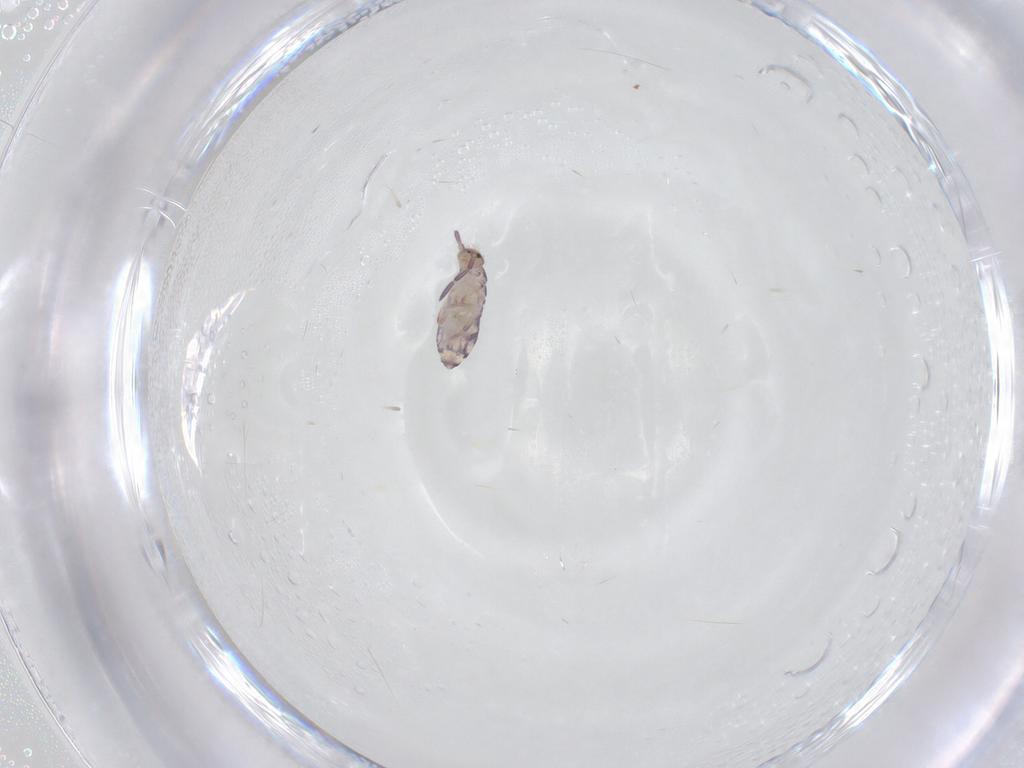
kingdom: Animalia
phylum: Arthropoda
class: Collembola
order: Entomobryomorpha
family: Entomobryidae
